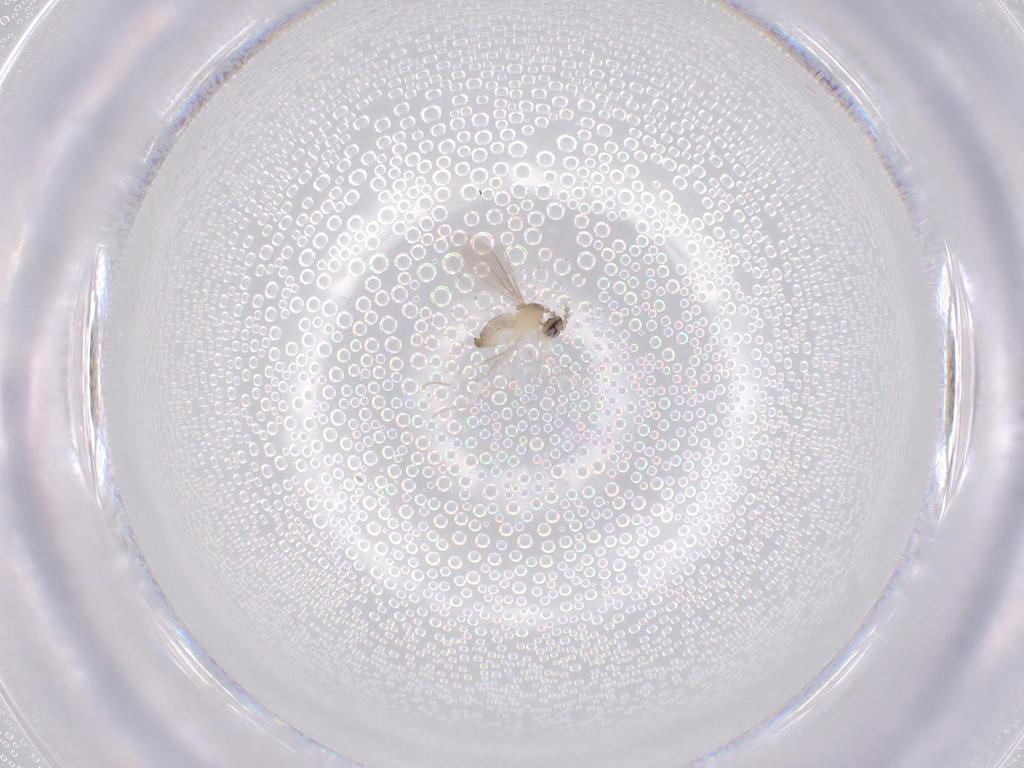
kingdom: Animalia
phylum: Arthropoda
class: Insecta
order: Diptera
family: Cecidomyiidae
